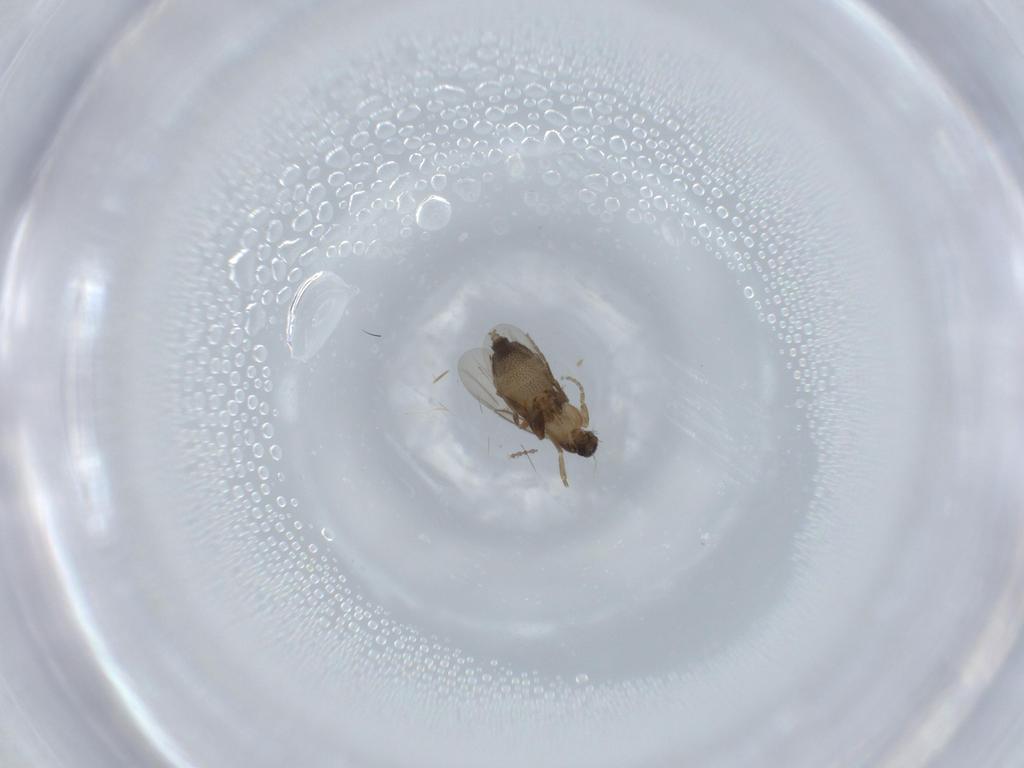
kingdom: Animalia
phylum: Arthropoda
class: Insecta
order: Diptera
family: Phoridae
